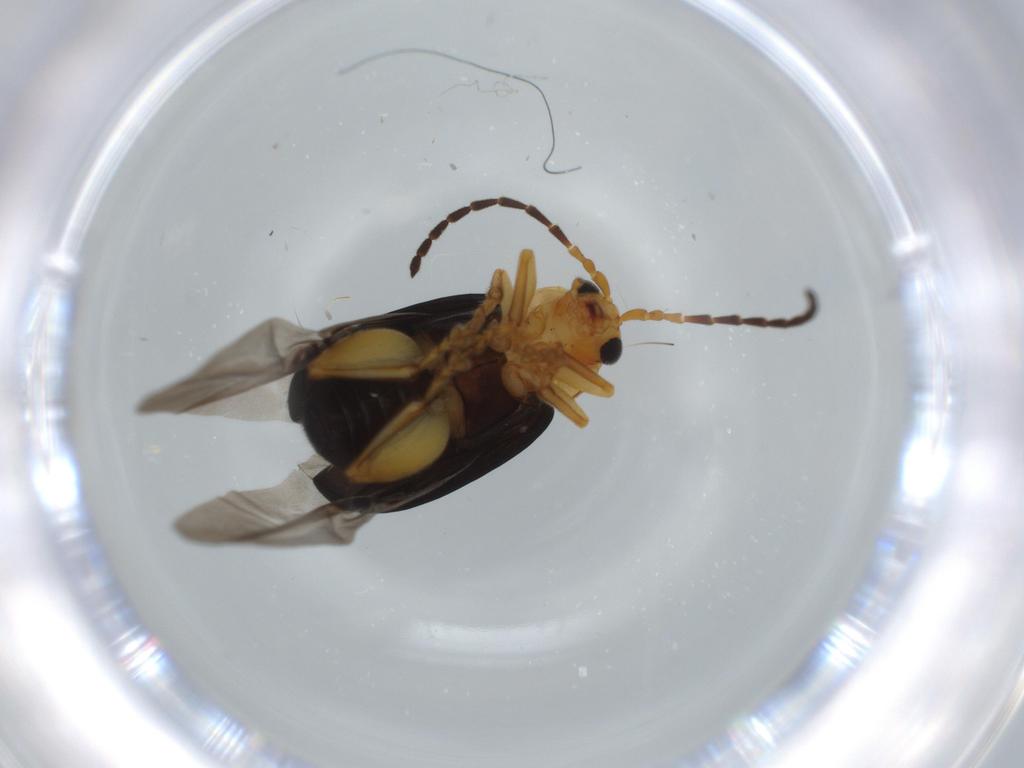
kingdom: Animalia
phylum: Arthropoda
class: Insecta
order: Coleoptera
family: Chrysomelidae
